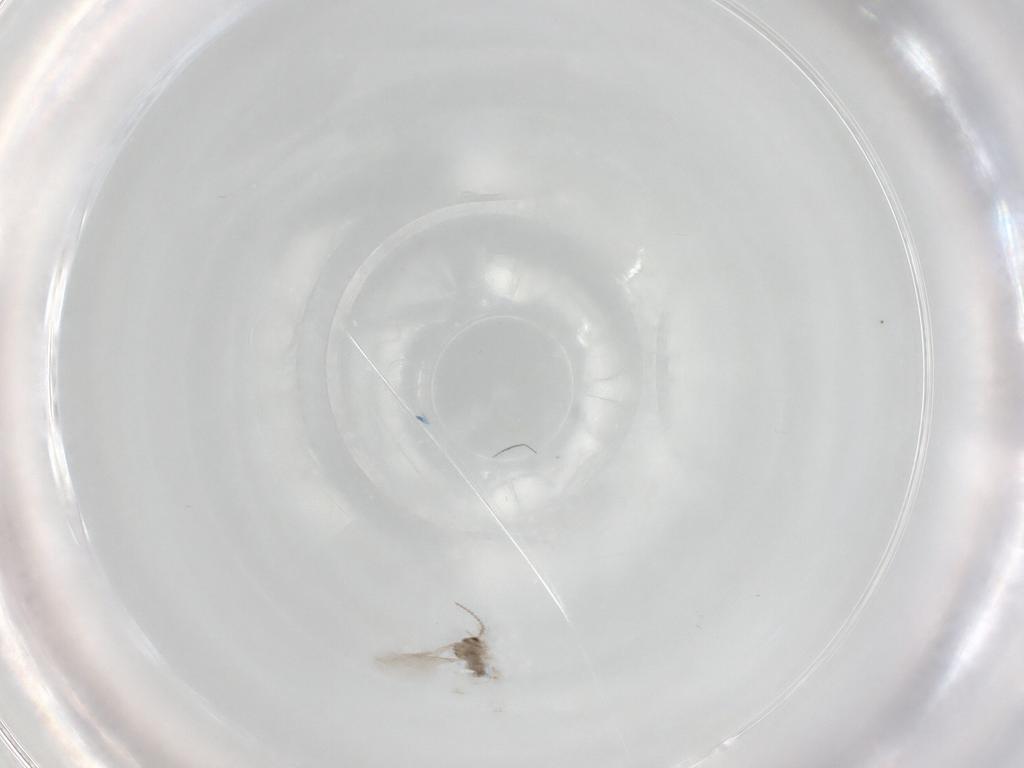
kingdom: Animalia
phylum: Arthropoda
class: Insecta
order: Diptera
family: Cecidomyiidae
